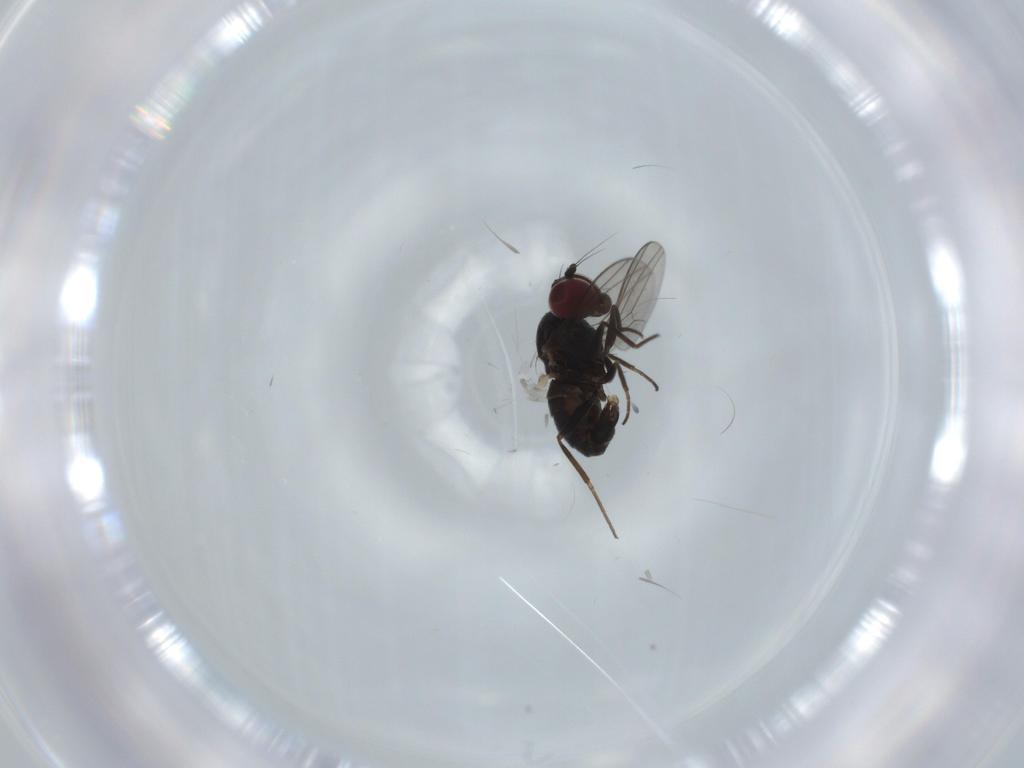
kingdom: Animalia
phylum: Arthropoda
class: Insecta
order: Diptera
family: Dolichopodidae
